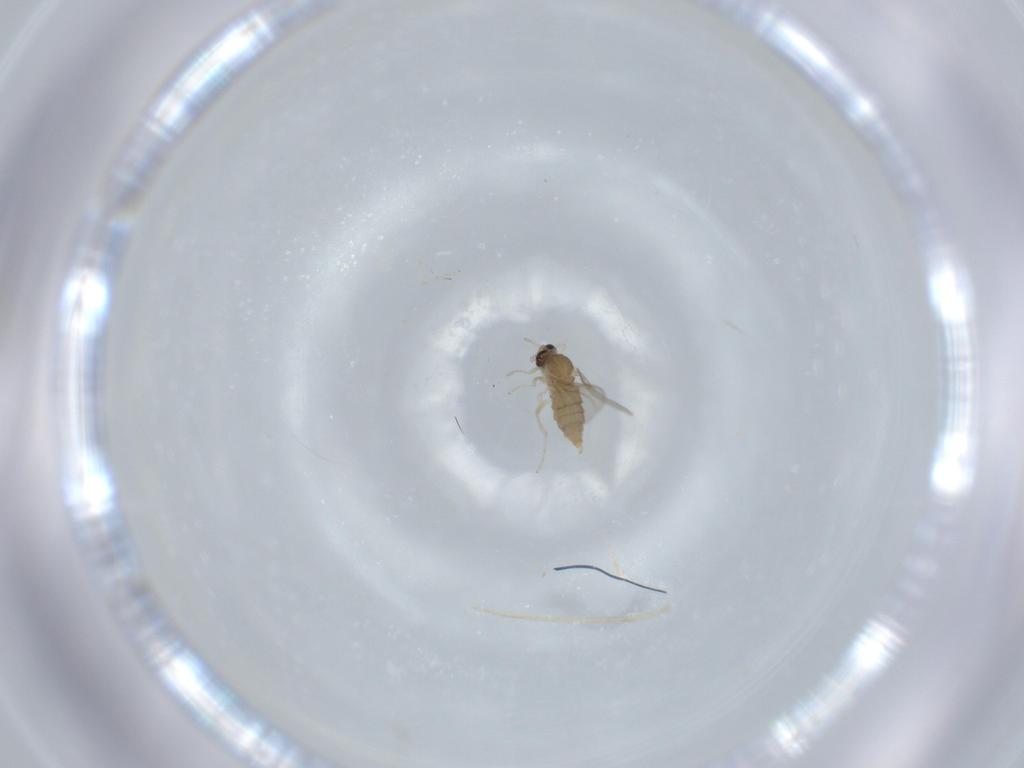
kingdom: Animalia
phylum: Arthropoda
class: Insecta
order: Diptera
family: Cecidomyiidae
